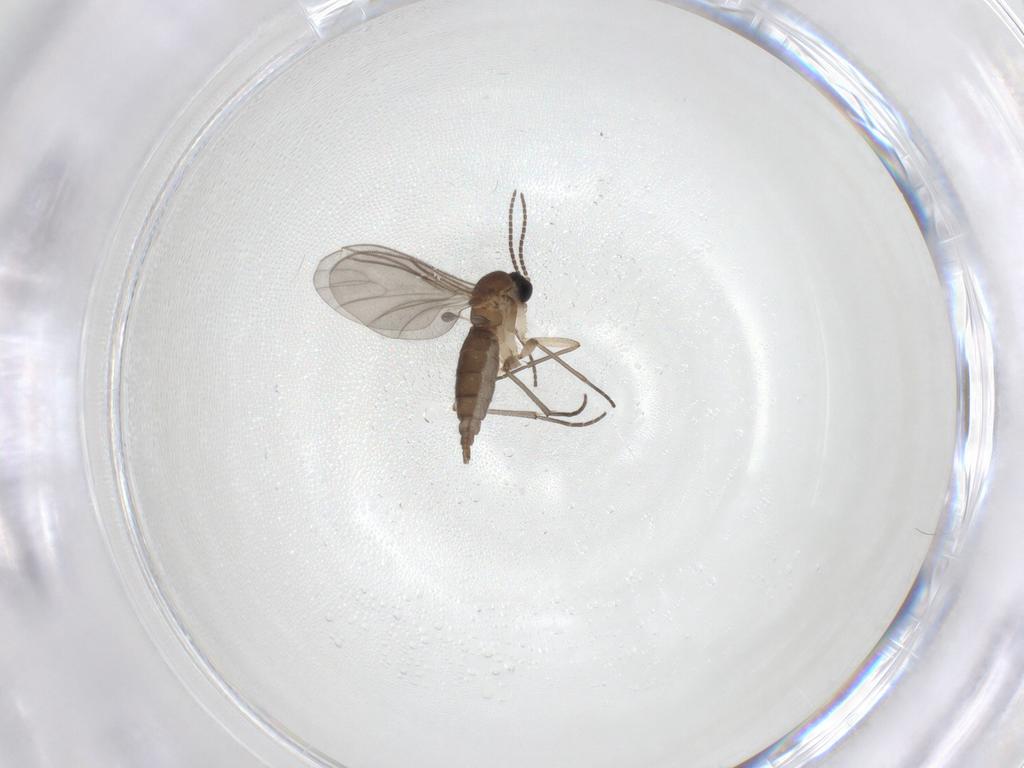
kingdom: Animalia
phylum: Arthropoda
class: Insecta
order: Diptera
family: Sciaridae
